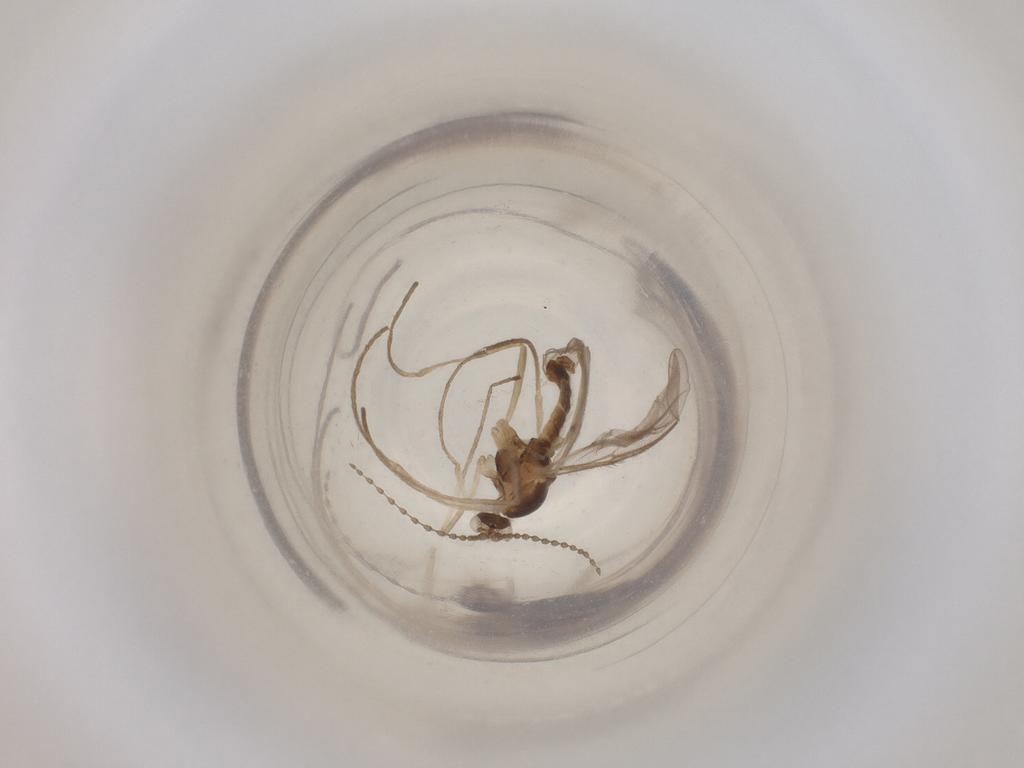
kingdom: Animalia
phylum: Arthropoda
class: Insecta
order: Diptera
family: Cecidomyiidae
